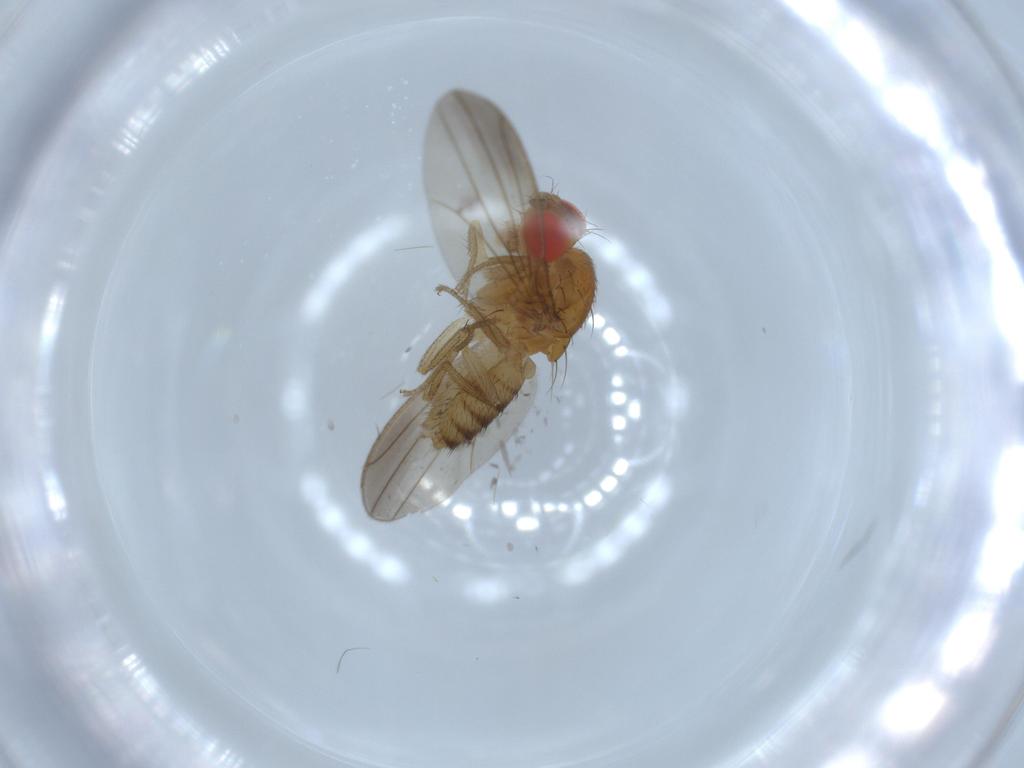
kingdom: Animalia
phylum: Arthropoda
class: Insecta
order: Diptera
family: Drosophilidae
